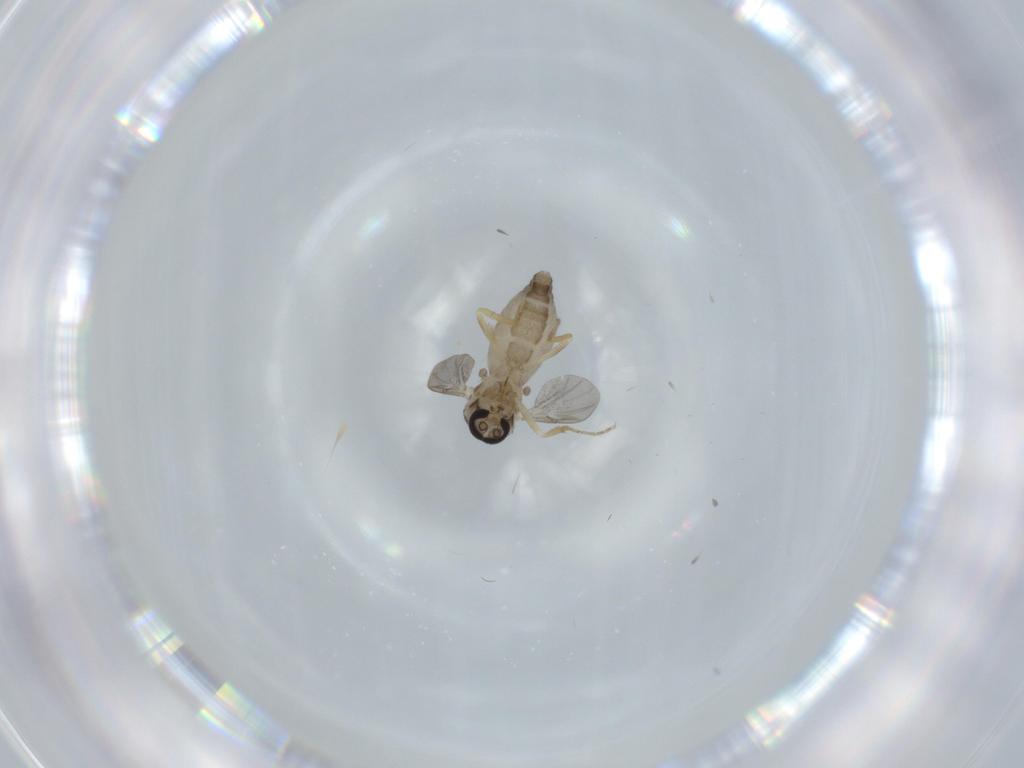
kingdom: Animalia
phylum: Arthropoda
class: Insecta
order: Diptera
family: Ceratopogonidae
